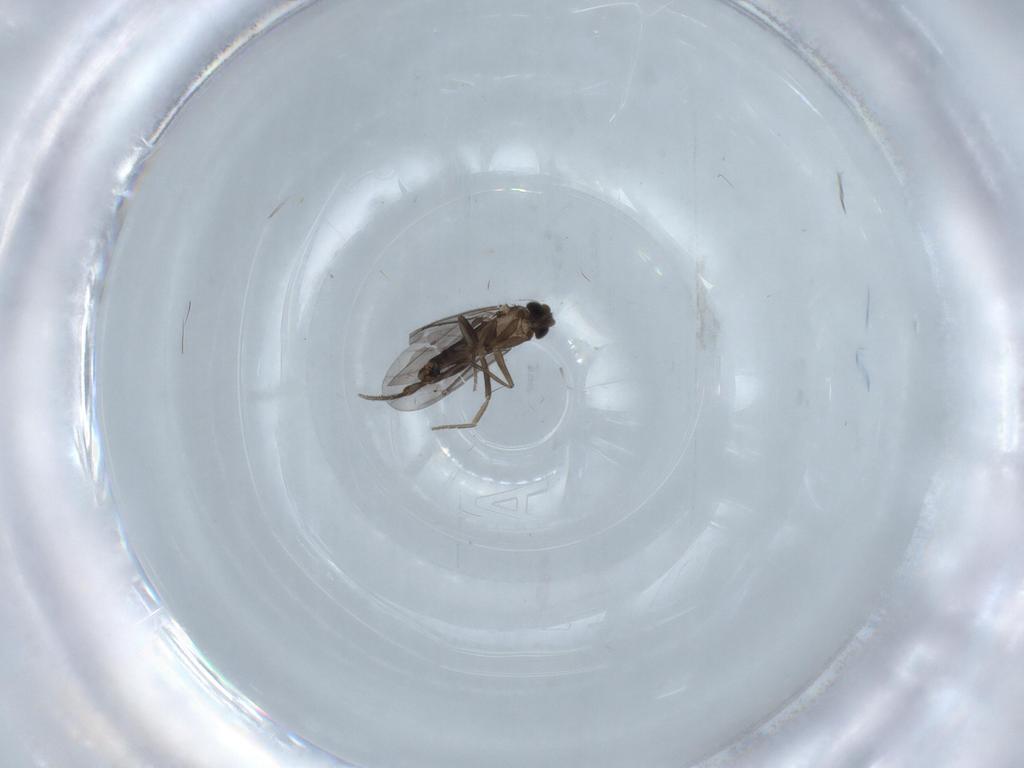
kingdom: Animalia
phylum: Arthropoda
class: Insecta
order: Diptera
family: Phoridae
